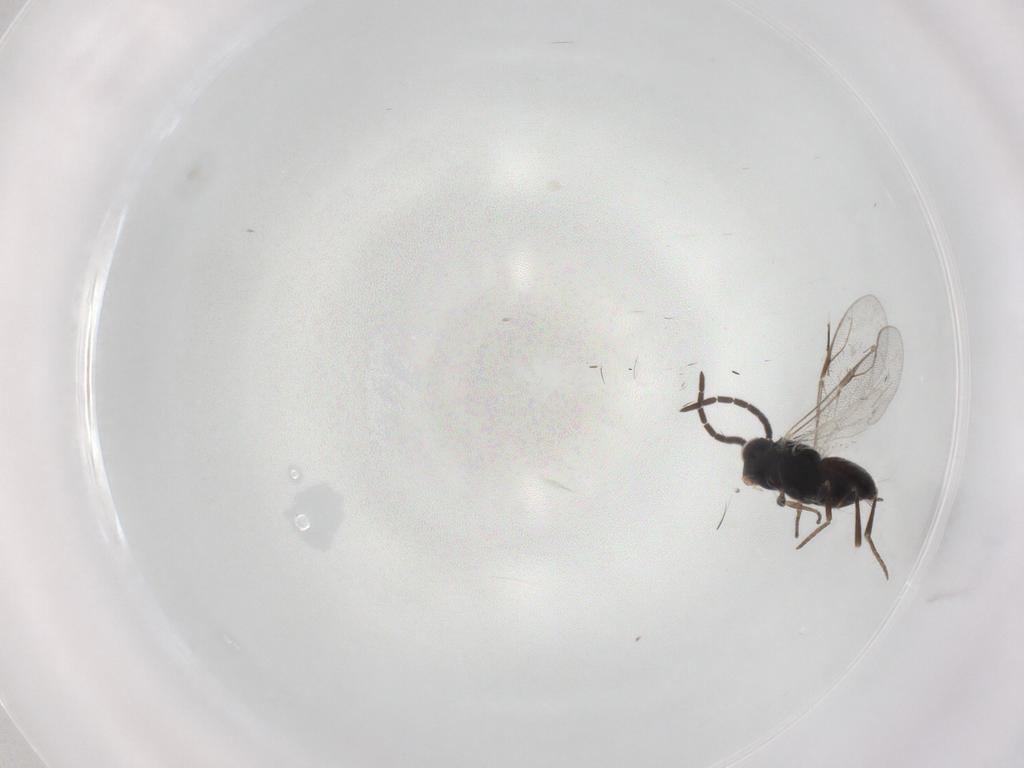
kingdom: Animalia
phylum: Arthropoda
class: Insecta
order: Hymenoptera
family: Dryinidae
